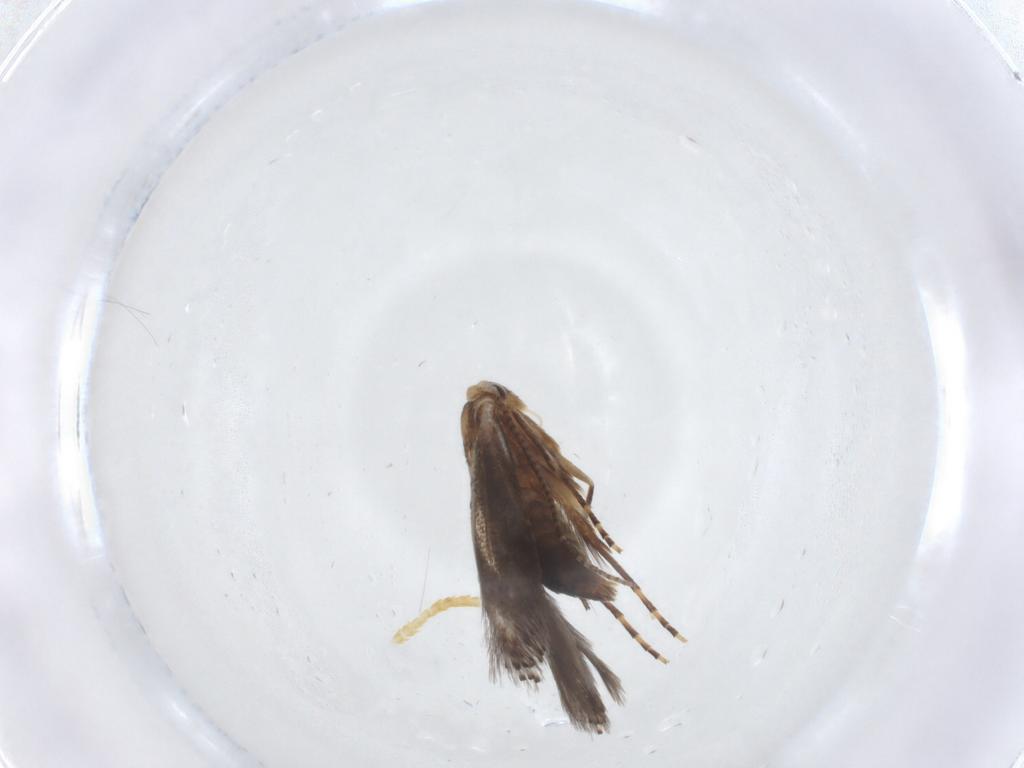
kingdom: Animalia
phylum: Arthropoda
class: Insecta
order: Lepidoptera
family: Bucculatricidae
